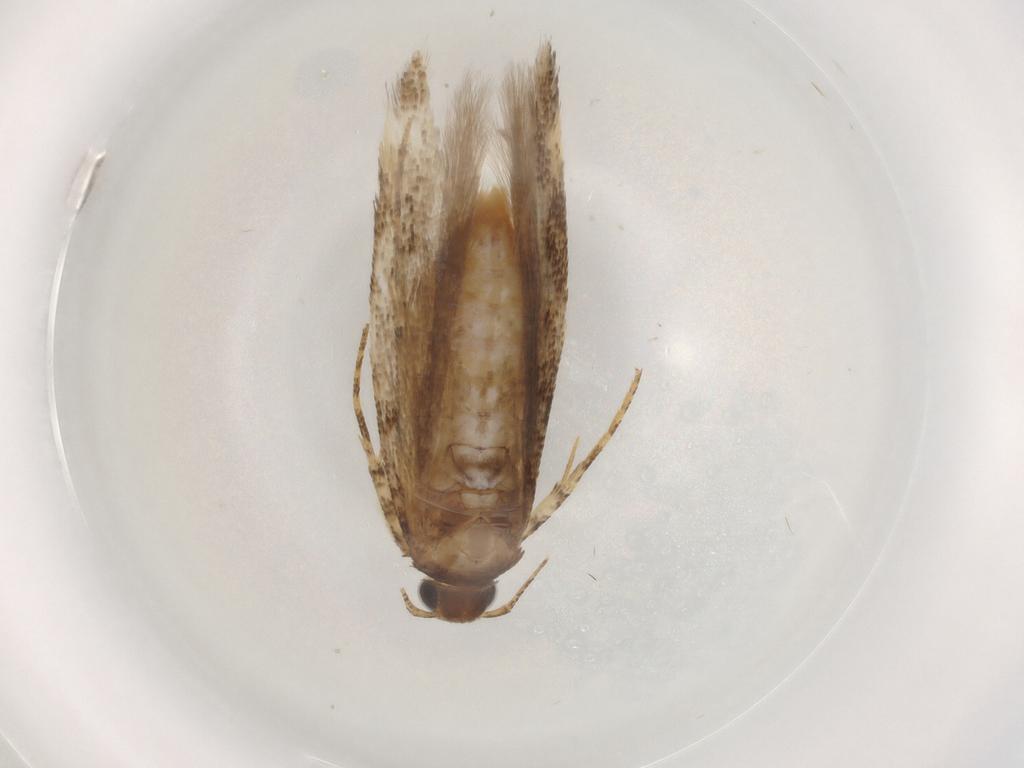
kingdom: Animalia
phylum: Arthropoda
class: Insecta
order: Lepidoptera
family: Gelechiidae
